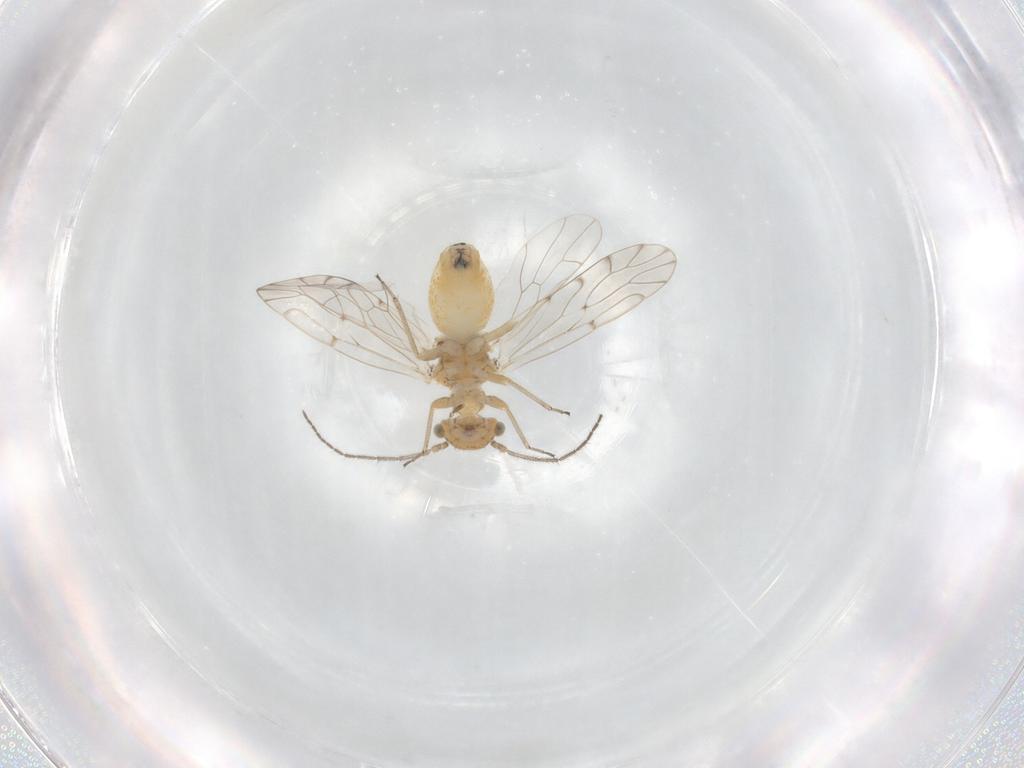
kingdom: Animalia
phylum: Arthropoda
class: Insecta
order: Psocodea
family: Ectopsocidae
